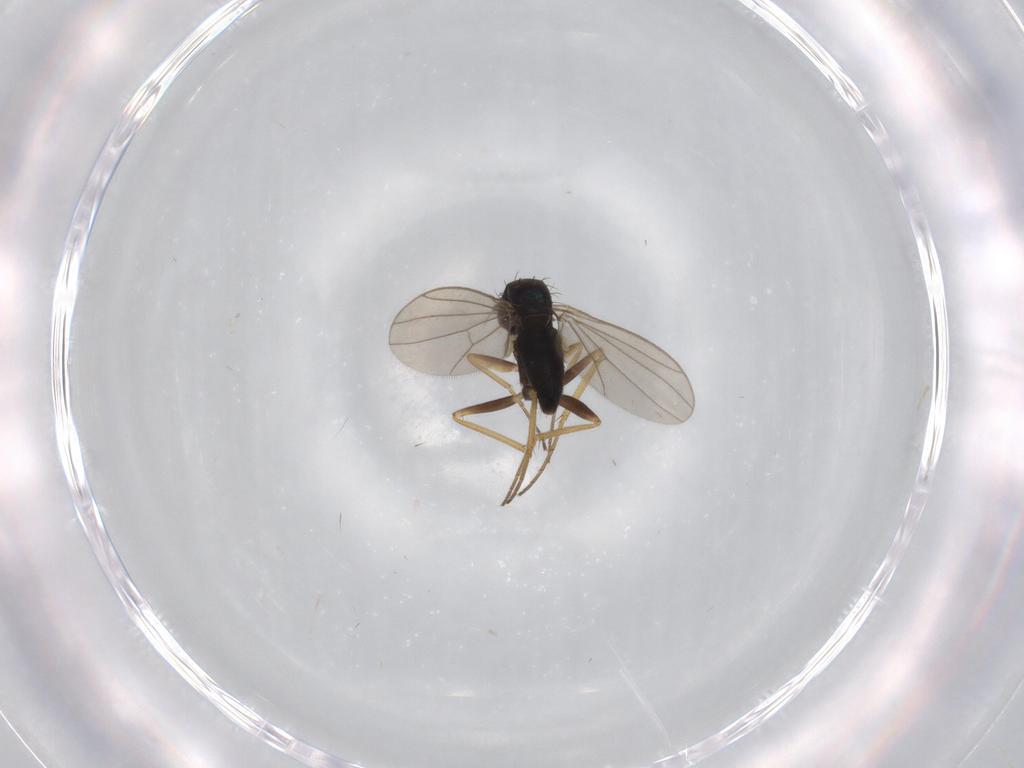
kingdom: Animalia
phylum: Arthropoda
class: Insecta
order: Diptera
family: Dolichopodidae
